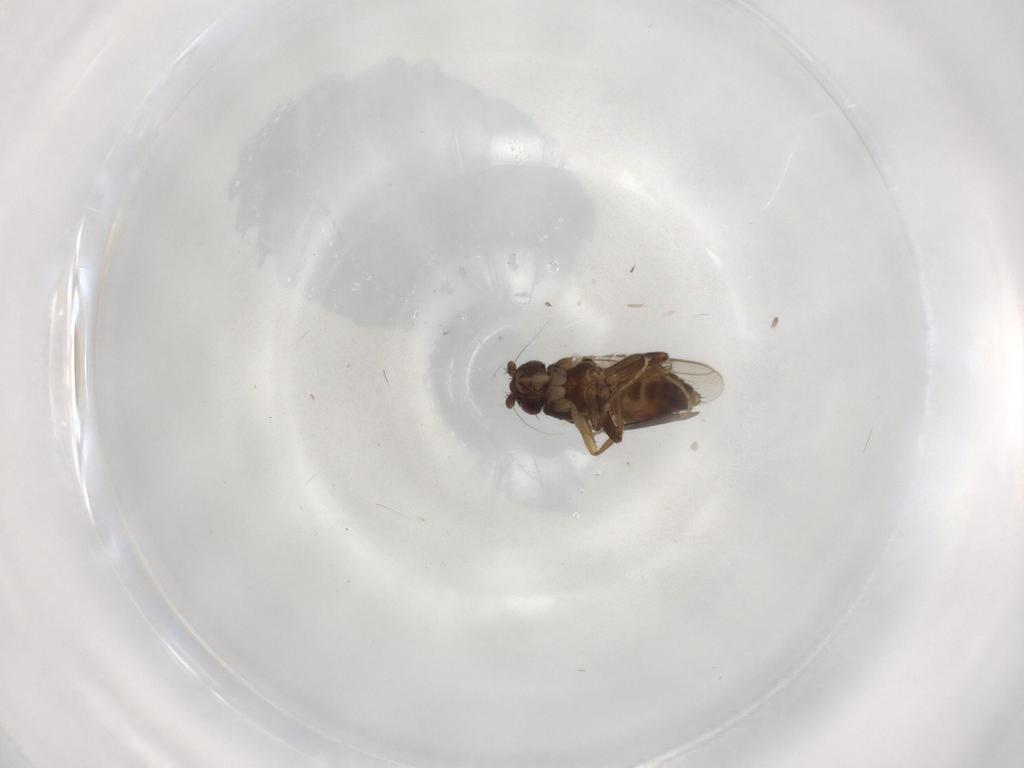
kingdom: Animalia
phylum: Arthropoda
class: Insecta
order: Diptera
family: Sphaeroceridae
